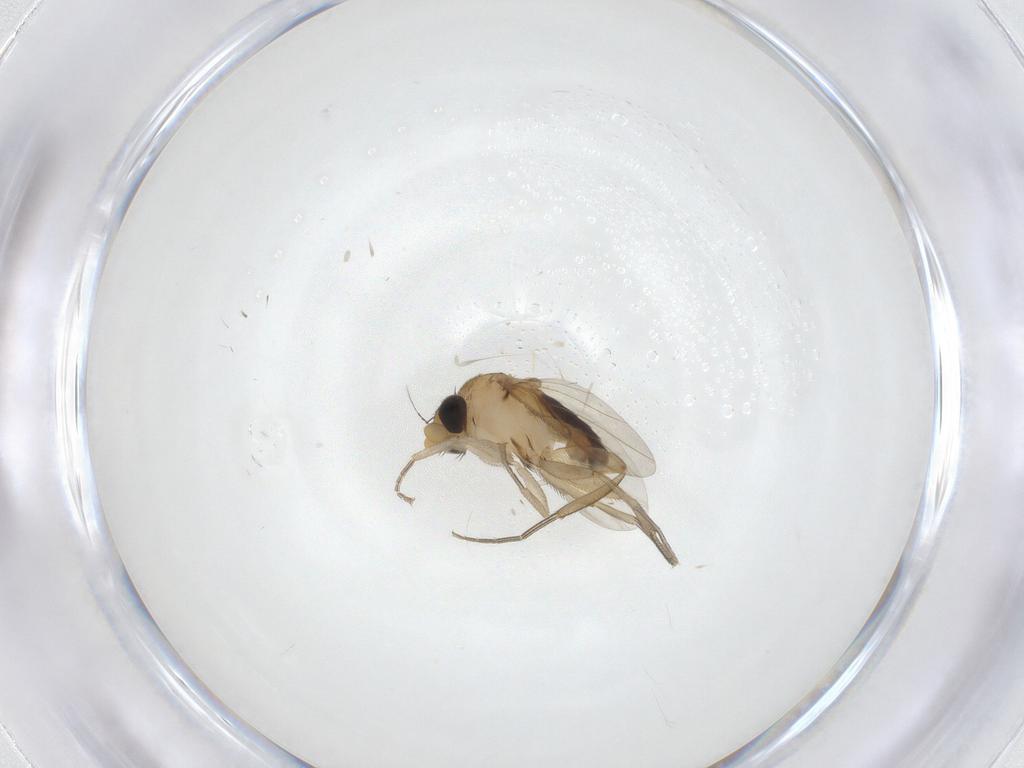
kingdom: Animalia
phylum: Arthropoda
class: Insecta
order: Diptera
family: Phoridae
